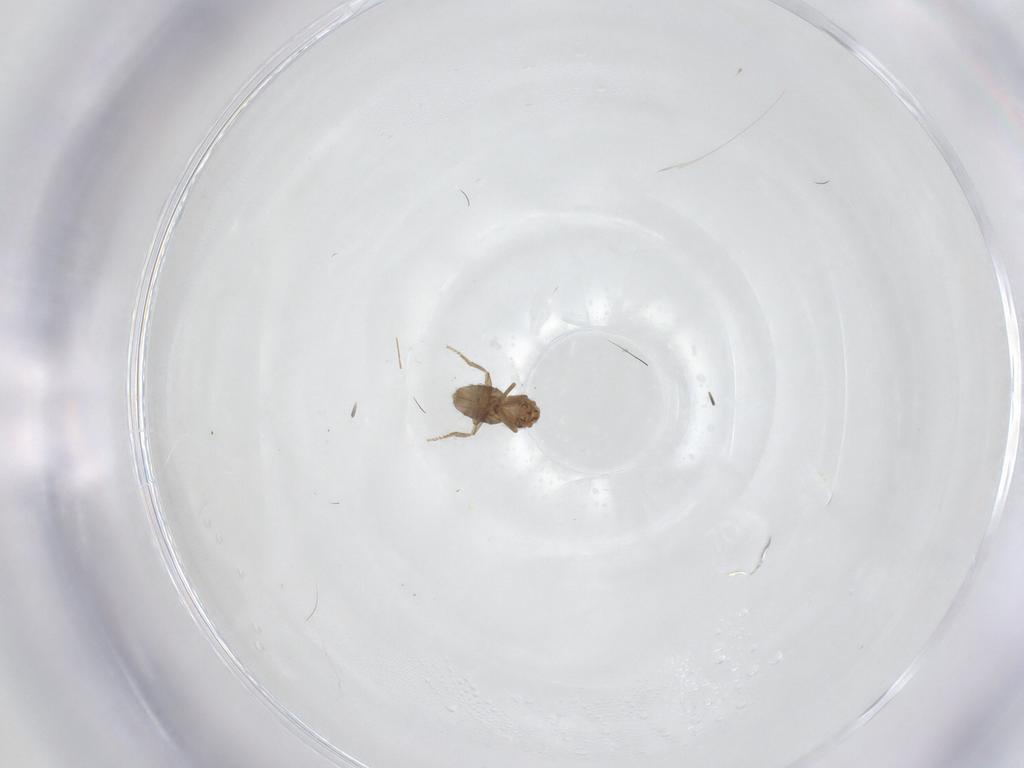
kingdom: Animalia
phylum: Arthropoda
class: Insecta
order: Diptera
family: Phoridae
